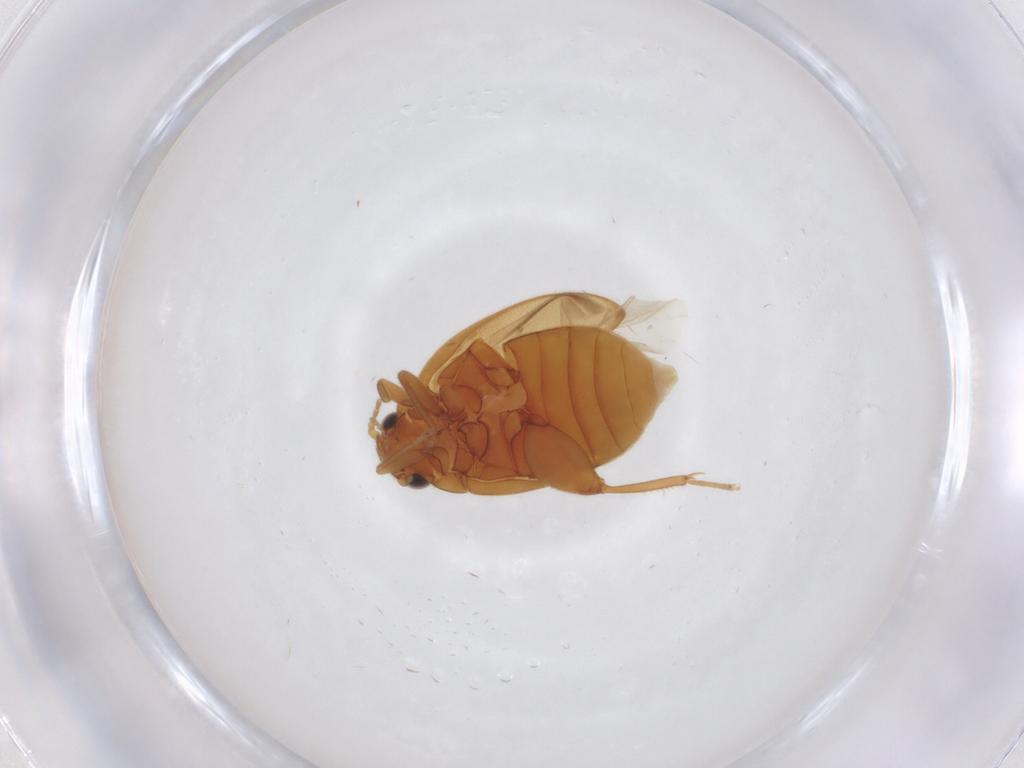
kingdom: Animalia
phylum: Arthropoda
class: Insecta
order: Coleoptera
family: Scirtidae
